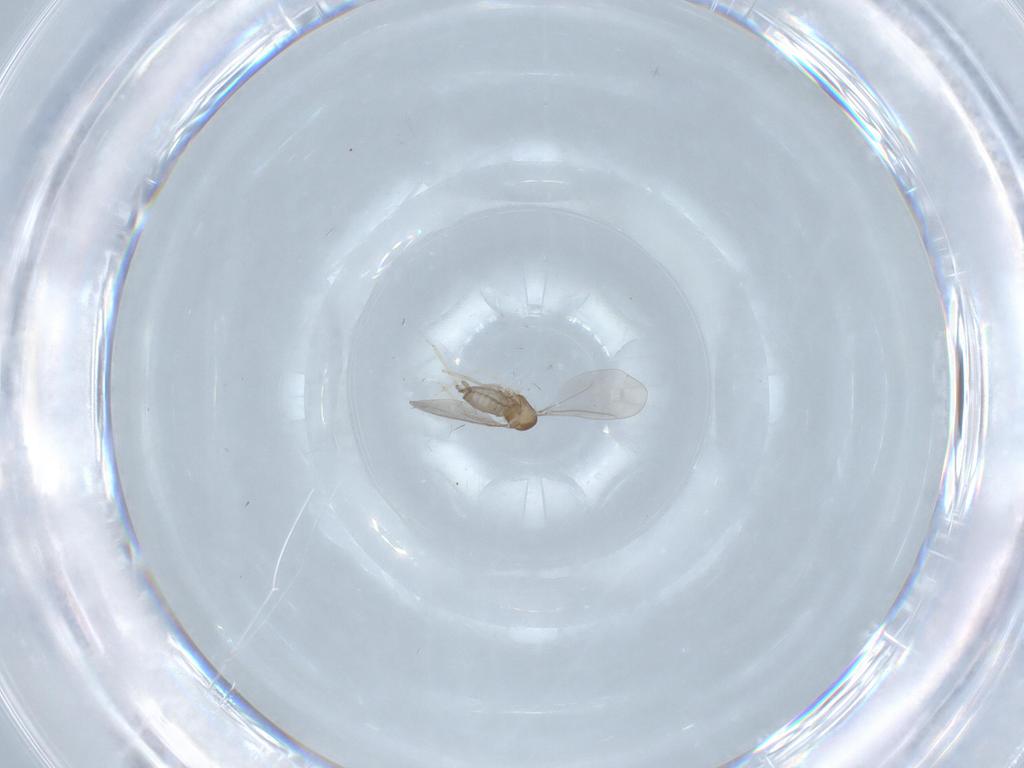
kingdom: Animalia
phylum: Arthropoda
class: Insecta
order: Diptera
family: Cecidomyiidae
